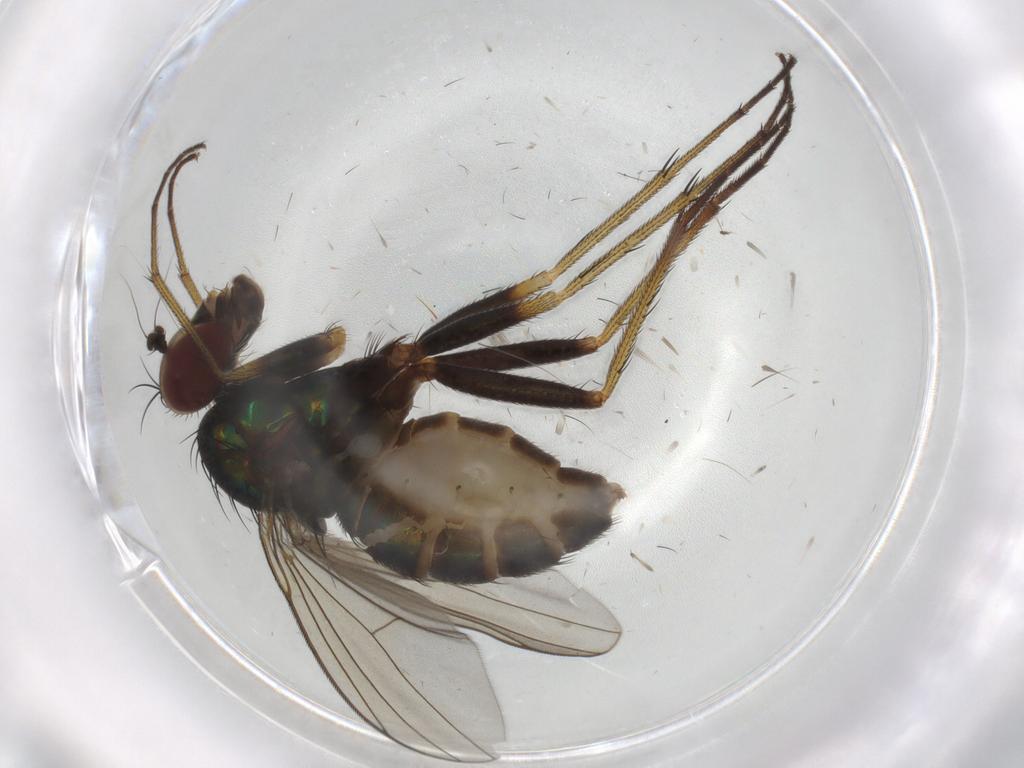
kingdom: Animalia
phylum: Arthropoda
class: Insecta
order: Diptera
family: Dolichopodidae
